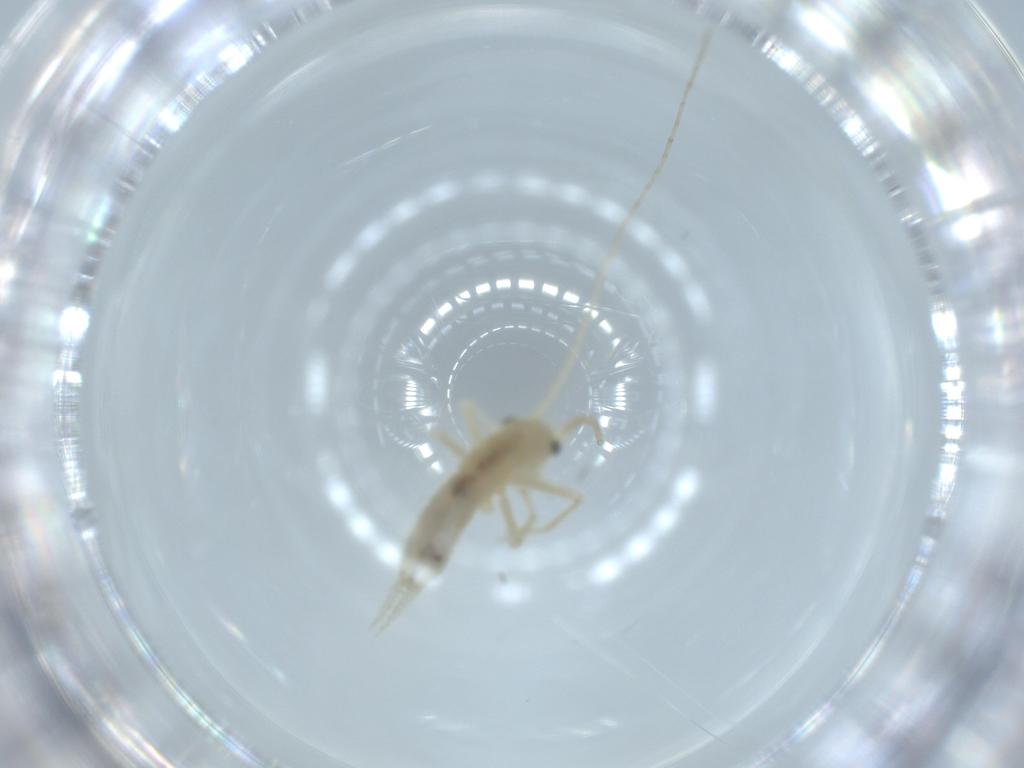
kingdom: Animalia
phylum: Arthropoda
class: Insecta
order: Orthoptera
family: Trigonidiidae
